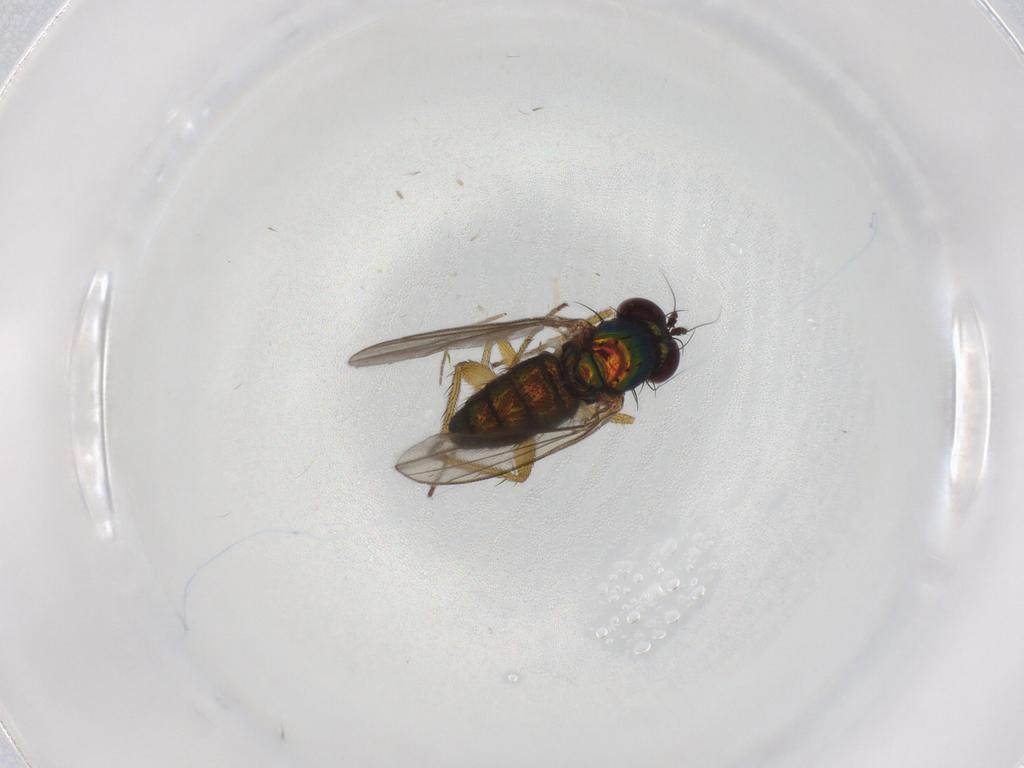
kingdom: Animalia
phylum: Arthropoda
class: Insecta
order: Diptera
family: Dolichopodidae
